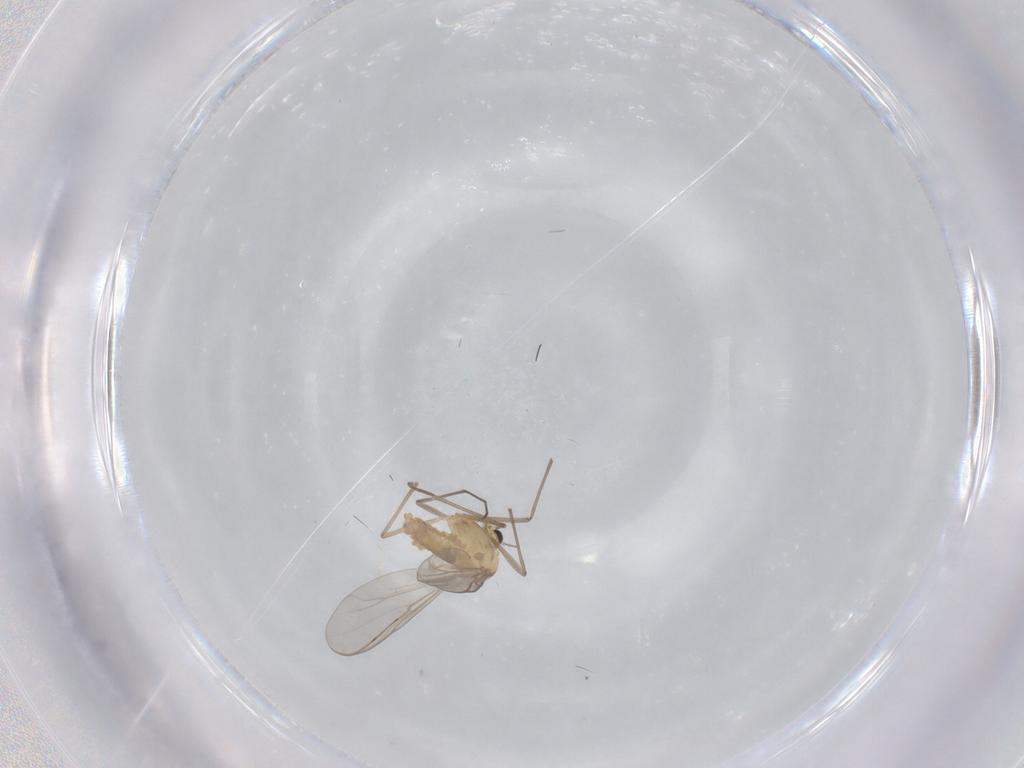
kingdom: Animalia
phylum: Arthropoda
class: Insecta
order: Diptera
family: Chironomidae
